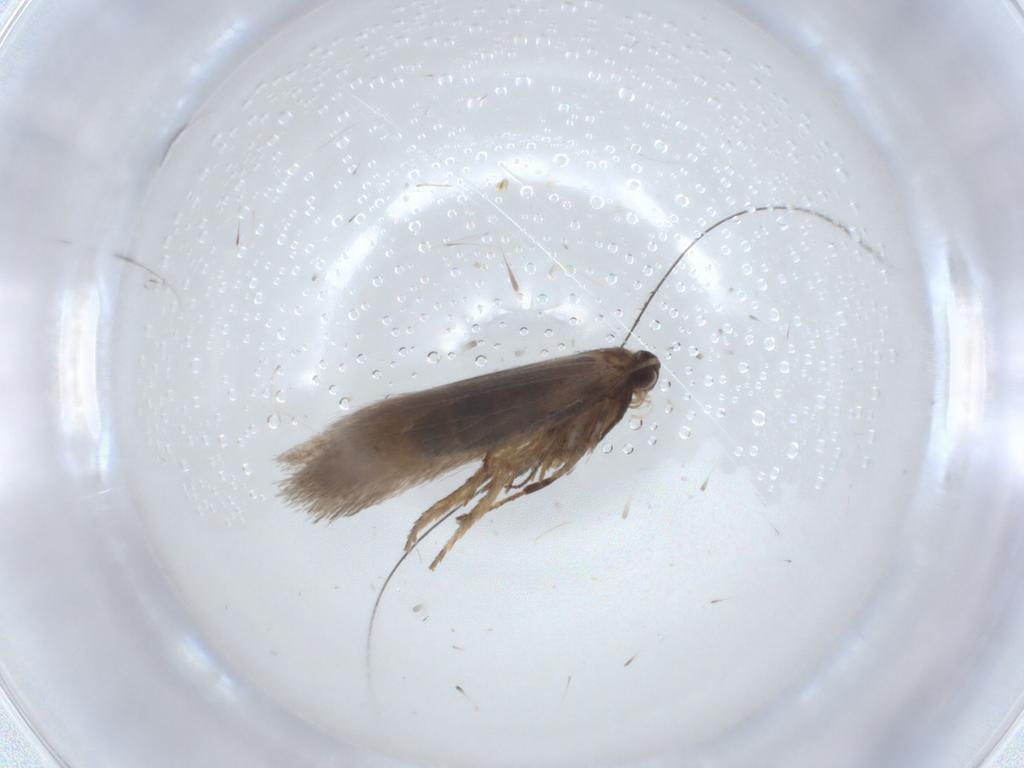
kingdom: Animalia
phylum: Arthropoda
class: Insecta
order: Lepidoptera
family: Nepticulidae
